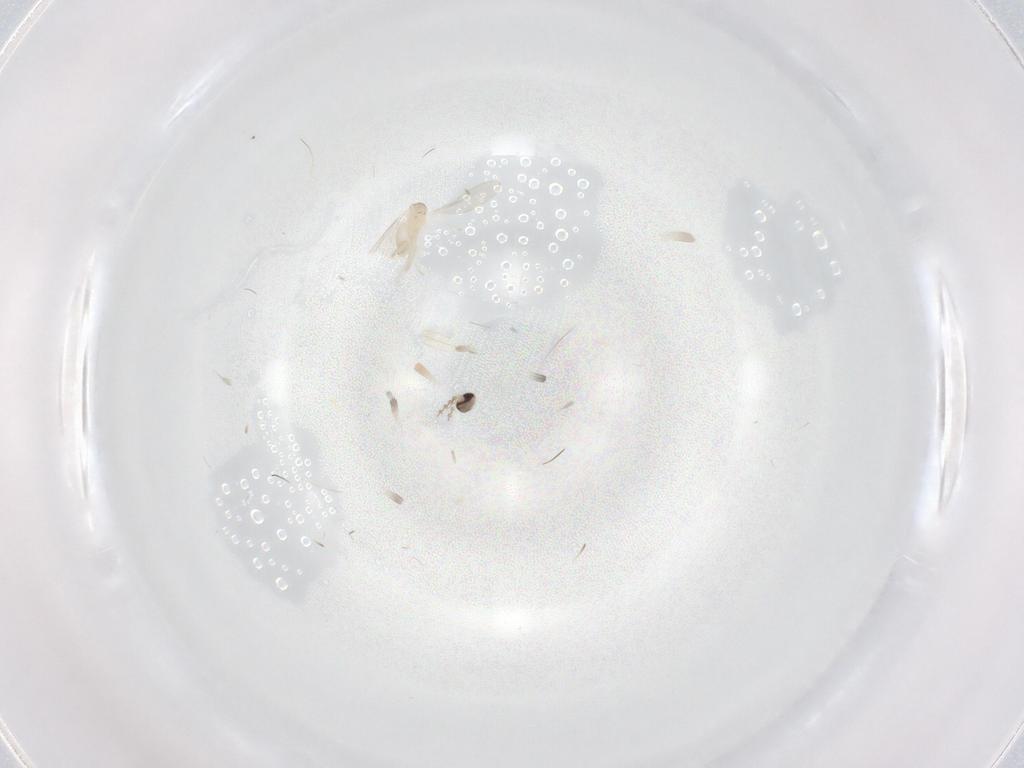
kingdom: Animalia
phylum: Arthropoda
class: Insecta
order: Diptera
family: Cecidomyiidae
